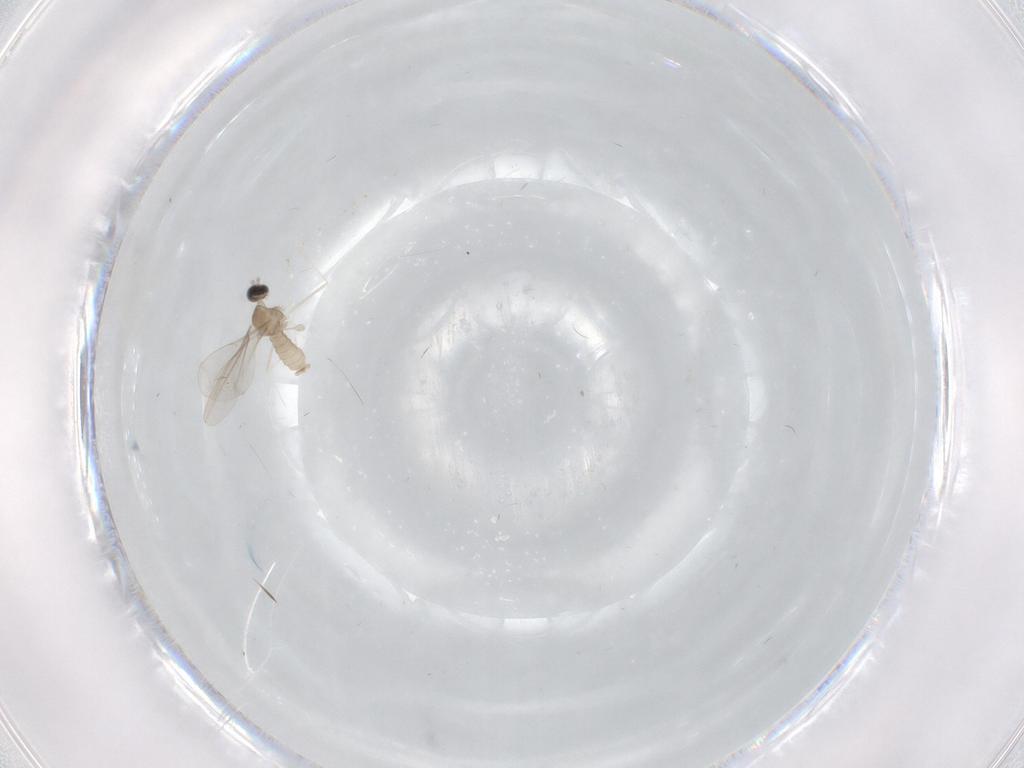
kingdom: Animalia
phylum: Arthropoda
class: Insecta
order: Diptera
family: Cecidomyiidae
